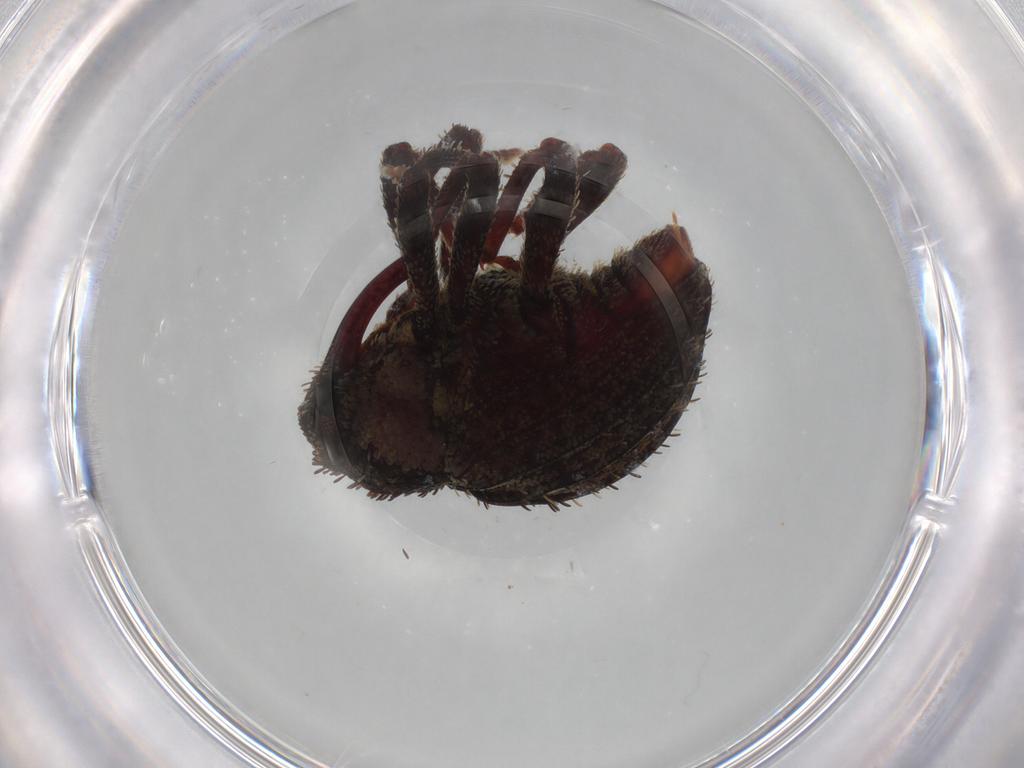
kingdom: Animalia
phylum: Arthropoda
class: Insecta
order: Coleoptera
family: Curculionidae
